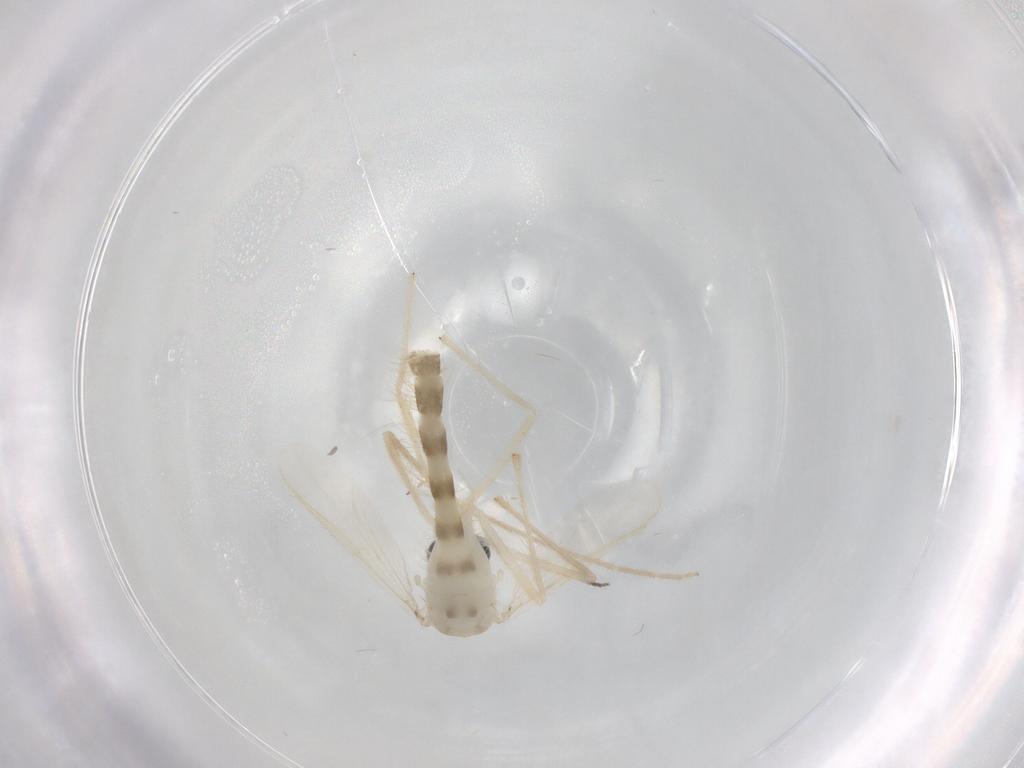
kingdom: Animalia
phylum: Arthropoda
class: Insecta
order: Diptera
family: Chironomidae
